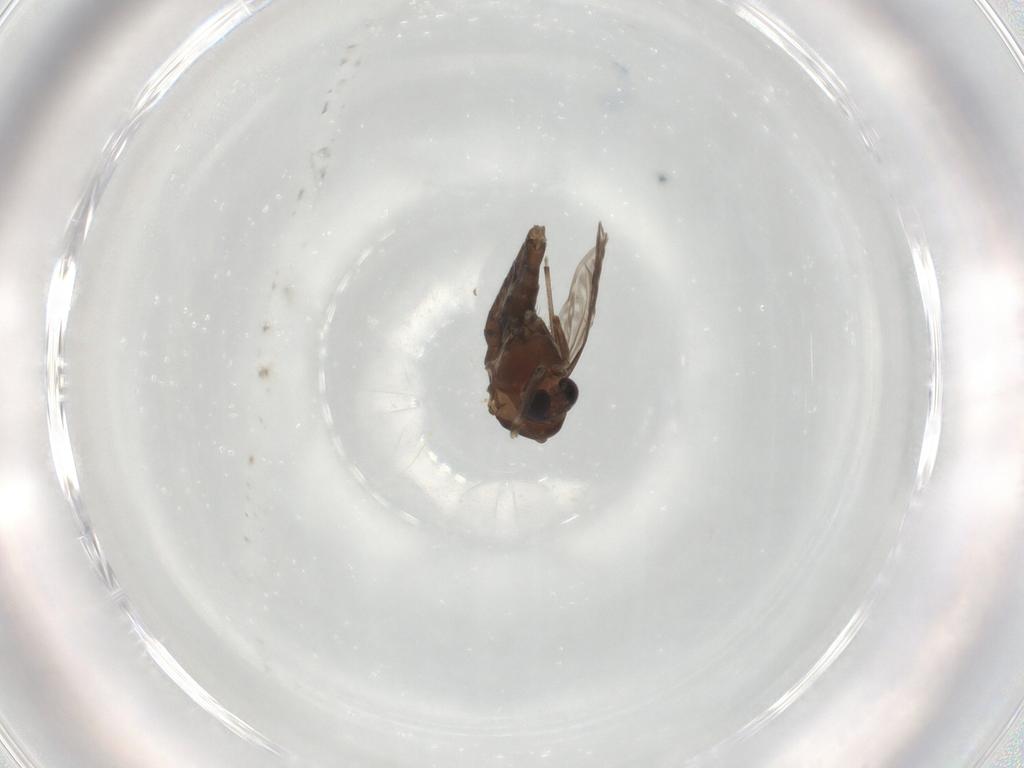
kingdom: Animalia
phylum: Arthropoda
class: Insecta
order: Diptera
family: Chironomidae
